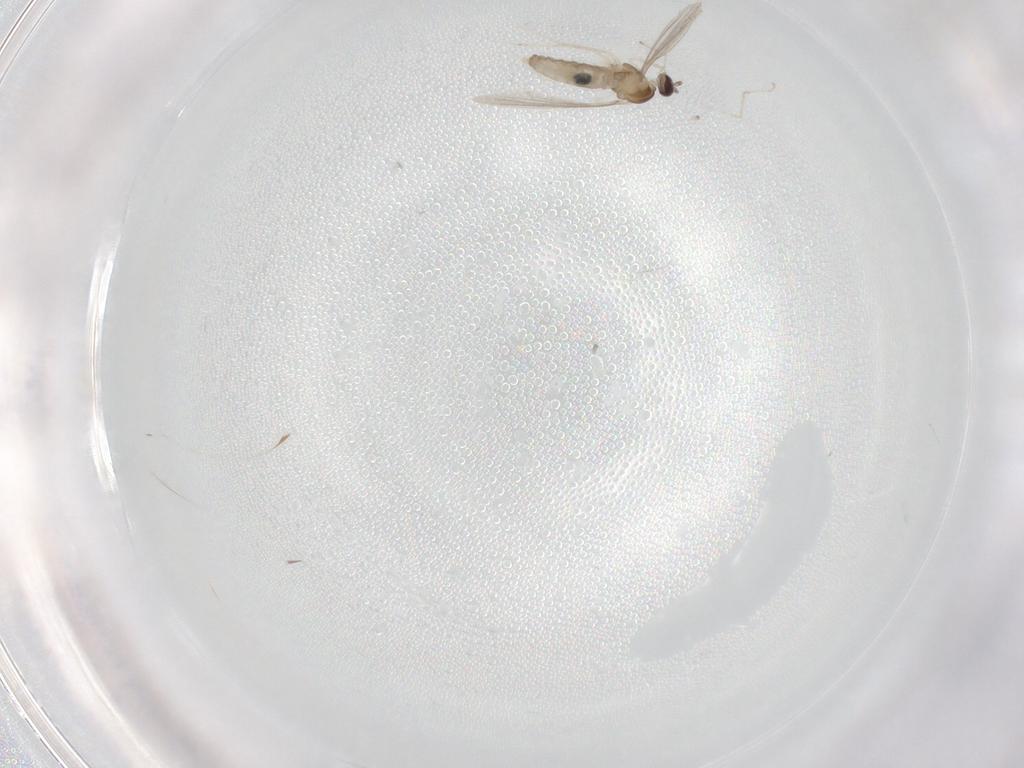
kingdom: Animalia
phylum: Arthropoda
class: Insecta
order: Diptera
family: Cecidomyiidae
